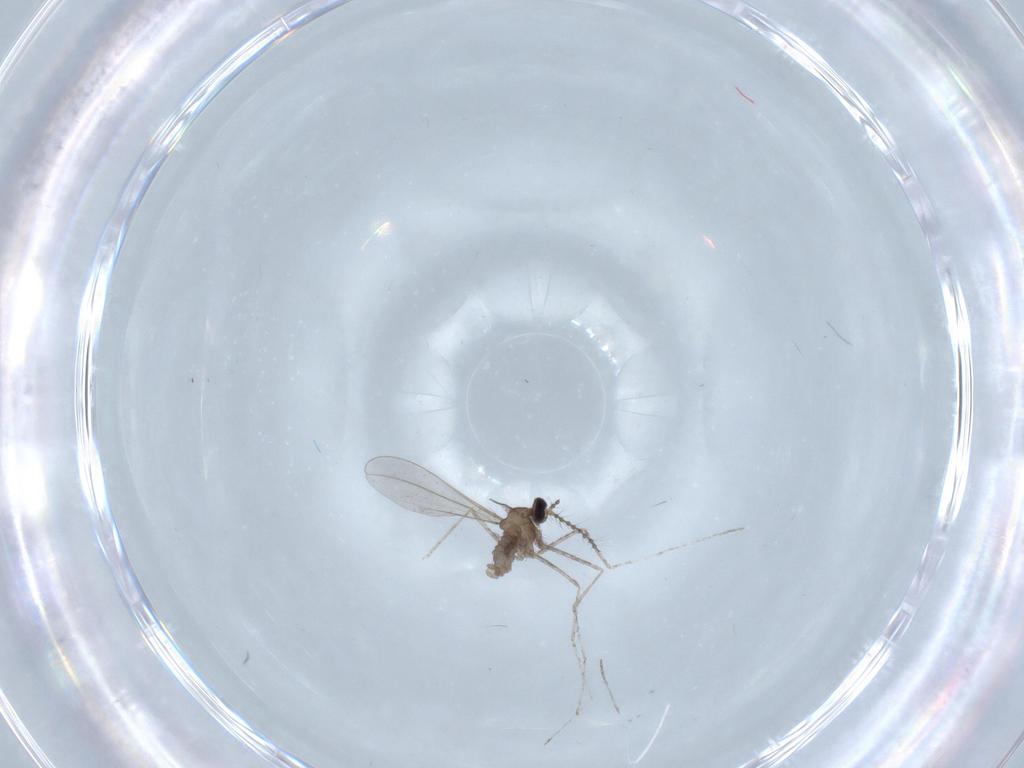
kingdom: Animalia
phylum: Arthropoda
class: Insecta
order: Diptera
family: Cecidomyiidae
